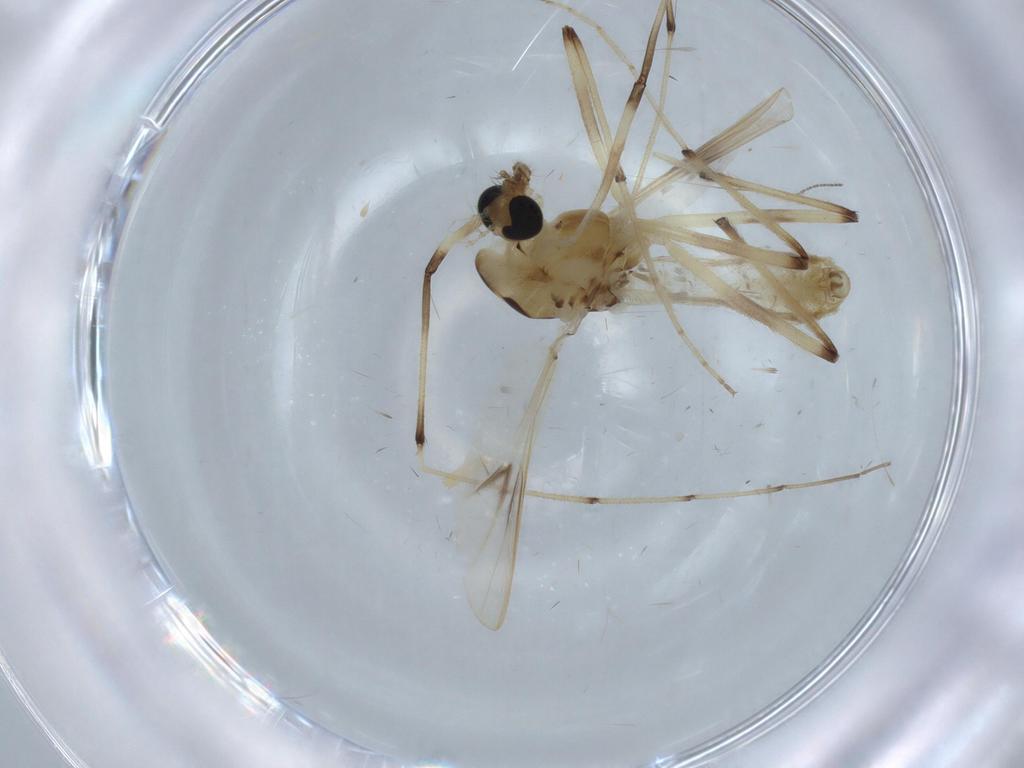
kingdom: Animalia
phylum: Arthropoda
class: Insecta
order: Diptera
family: Chironomidae
